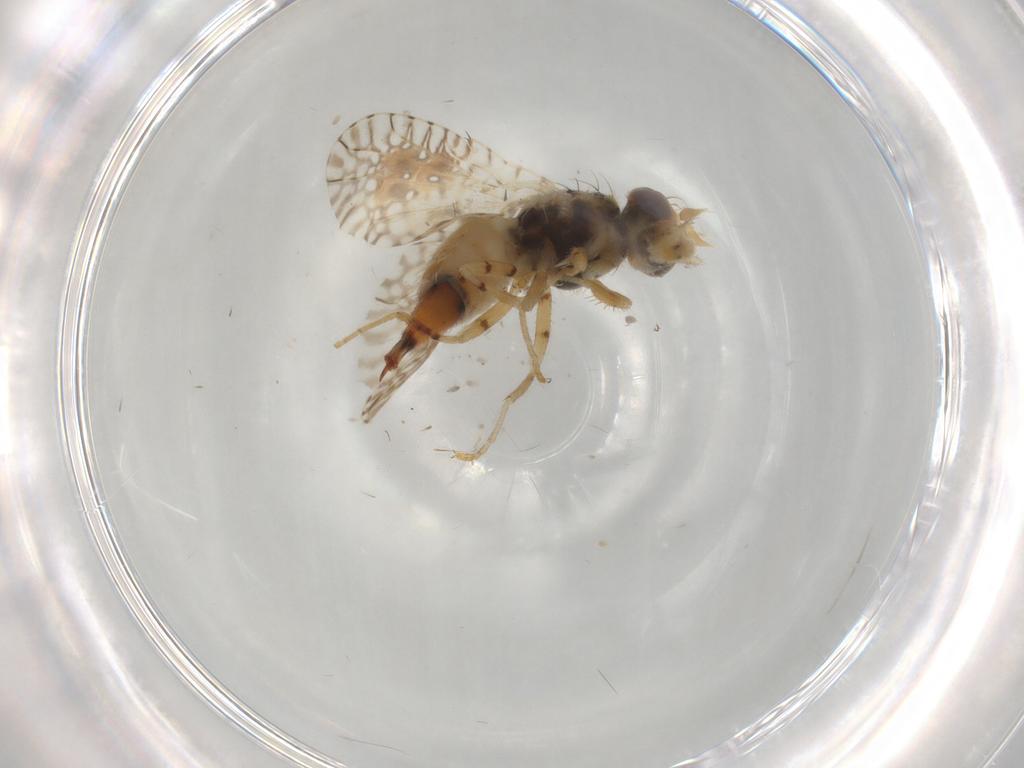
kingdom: Animalia
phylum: Arthropoda
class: Insecta
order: Diptera
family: Tephritidae
